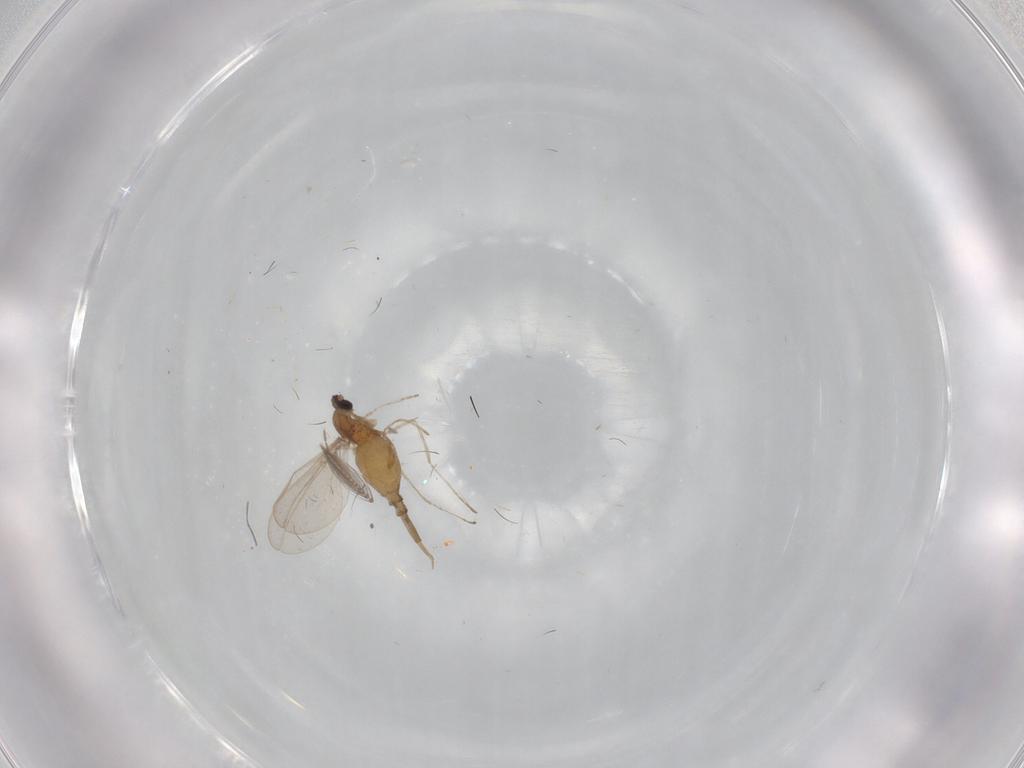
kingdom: Animalia
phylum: Arthropoda
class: Insecta
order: Diptera
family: Ceratopogonidae
